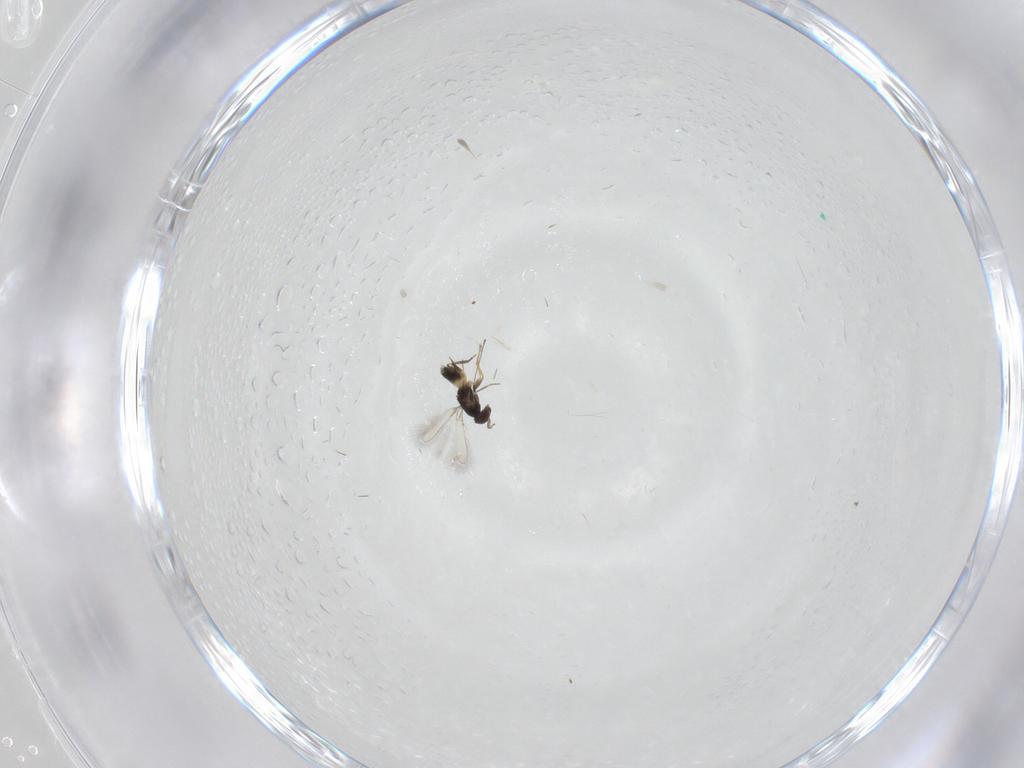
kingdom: Animalia
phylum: Arthropoda
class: Insecta
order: Hymenoptera
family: Mymaridae
